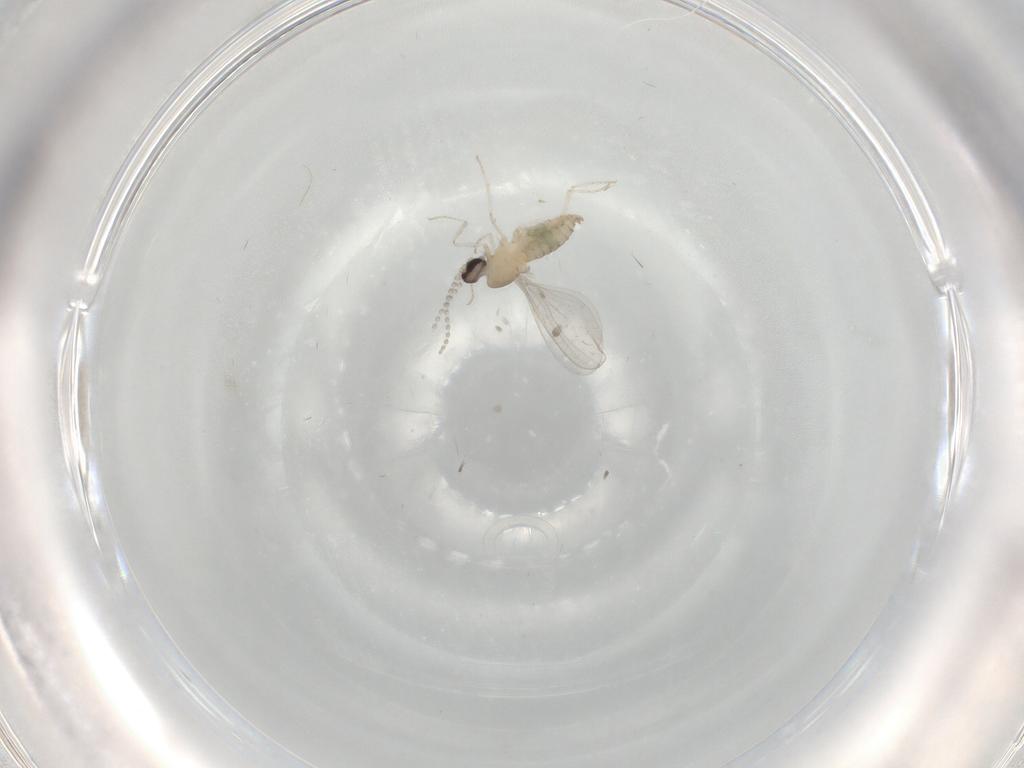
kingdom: Animalia
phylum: Arthropoda
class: Insecta
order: Diptera
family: Cecidomyiidae
